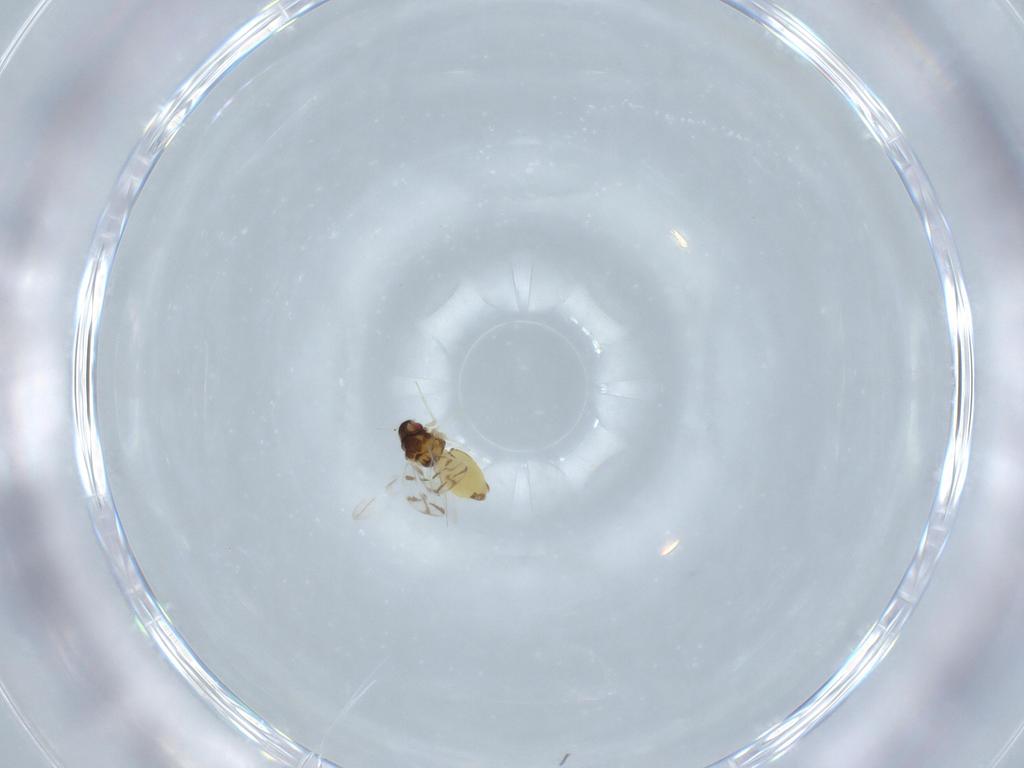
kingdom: Animalia
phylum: Arthropoda
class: Insecta
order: Hemiptera
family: Aleyrodidae
